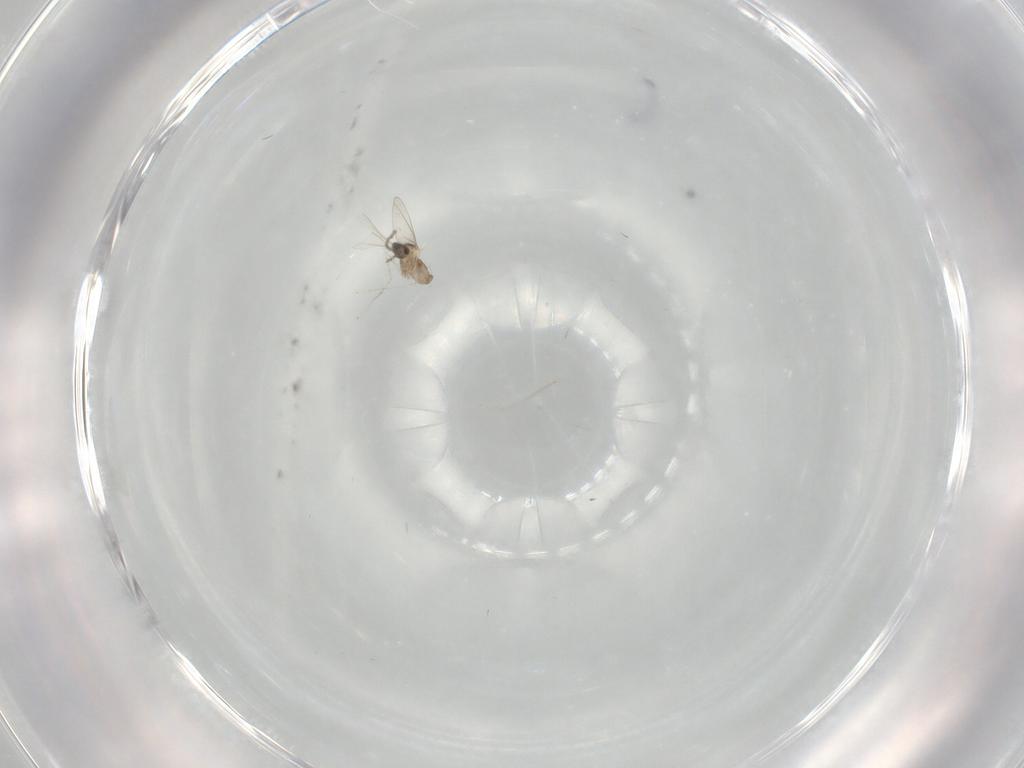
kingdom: Animalia
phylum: Arthropoda
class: Insecta
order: Diptera
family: Cecidomyiidae
